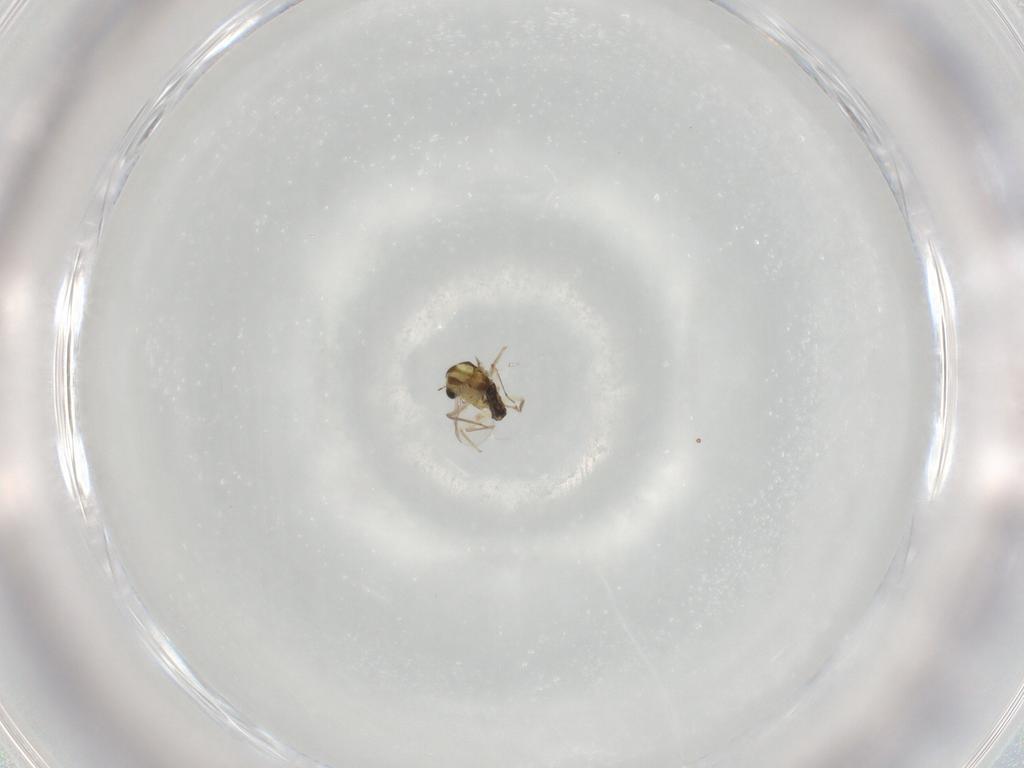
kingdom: Animalia
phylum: Arthropoda
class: Insecta
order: Diptera
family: Chironomidae
